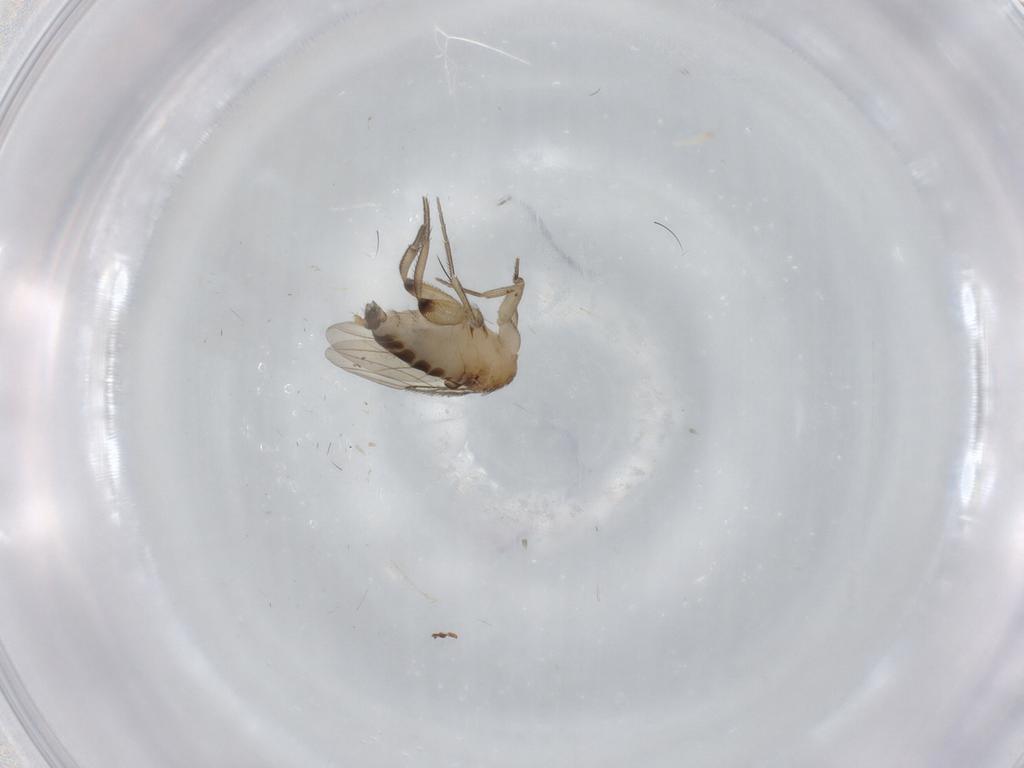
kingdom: Animalia
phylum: Arthropoda
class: Insecta
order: Diptera
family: Phoridae
